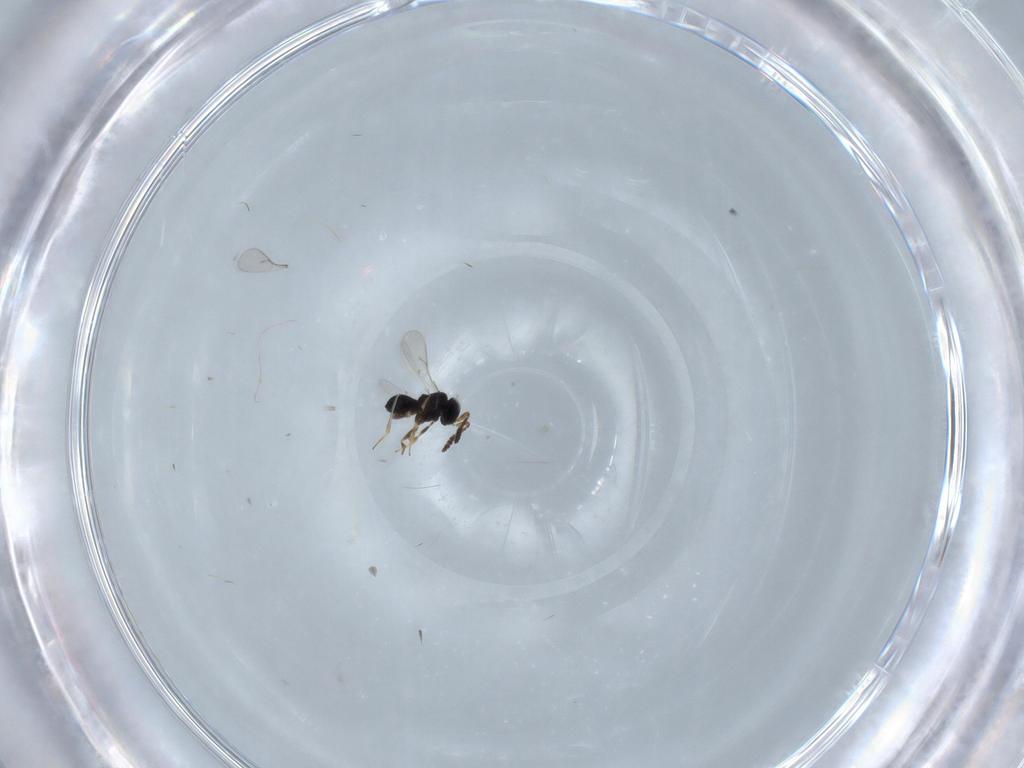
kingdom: Animalia
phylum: Arthropoda
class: Insecta
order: Hymenoptera
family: Scelionidae
